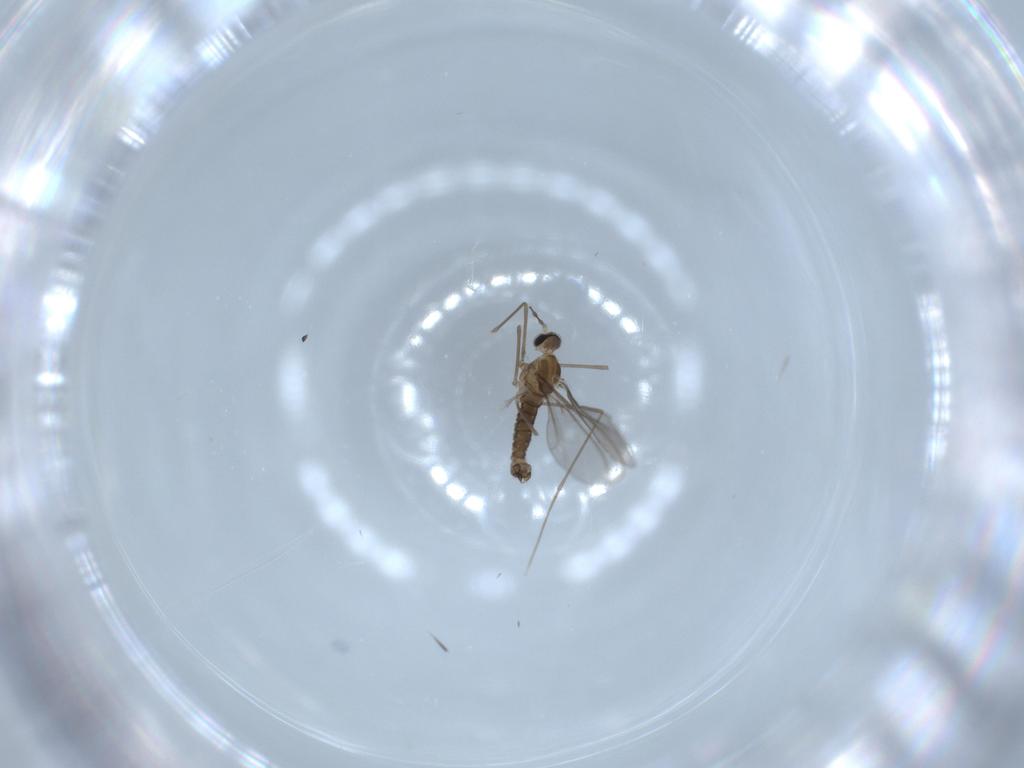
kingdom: Animalia
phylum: Arthropoda
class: Insecta
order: Diptera
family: Cecidomyiidae
